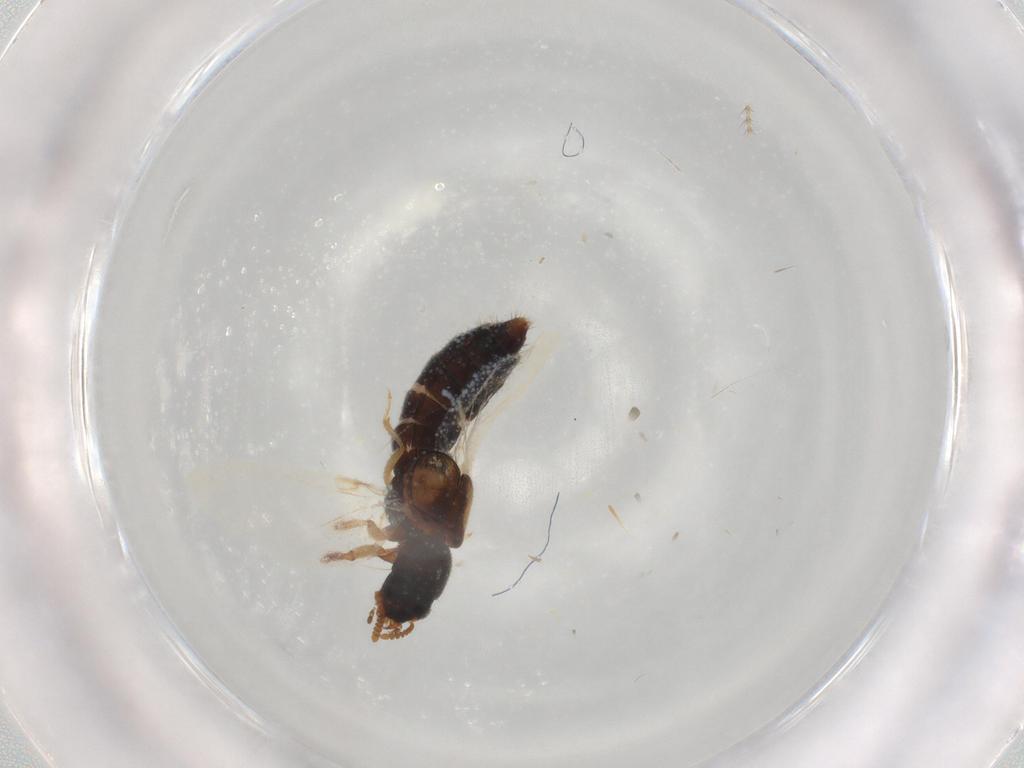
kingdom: Animalia
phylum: Arthropoda
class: Insecta
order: Coleoptera
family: Staphylinidae
